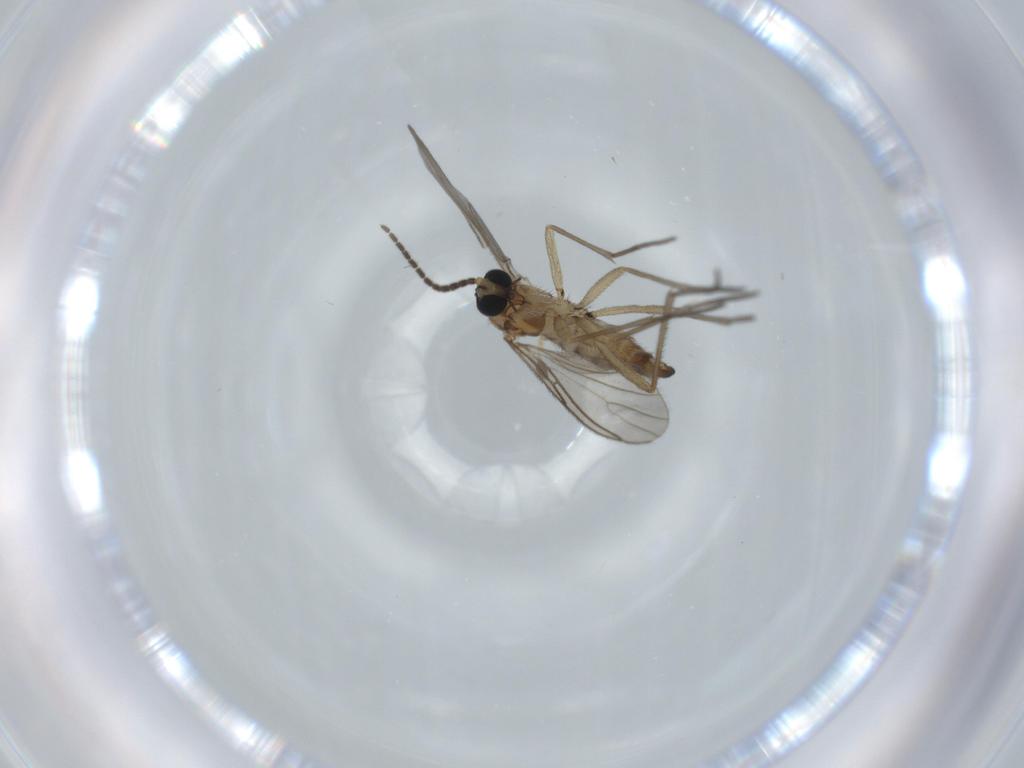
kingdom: Animalia
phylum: Arthropoda
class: Insecta
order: Diptera
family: Sciaridae
